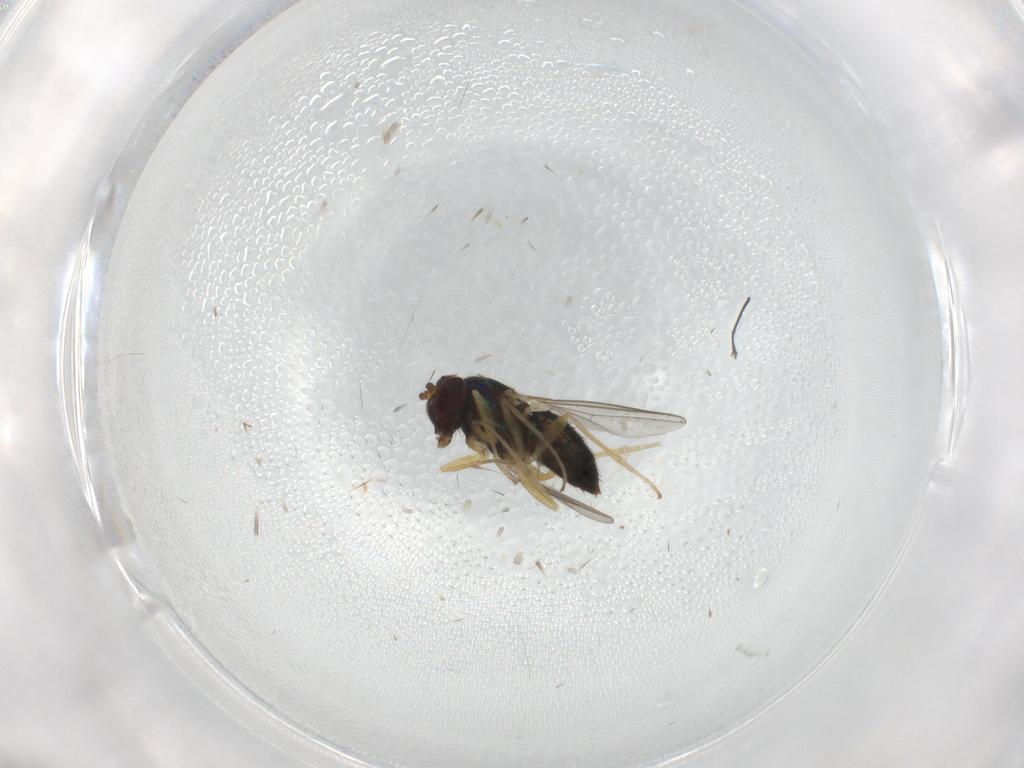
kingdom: Animalia
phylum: Arthropoda
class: Insecta
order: Diptera
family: Dolichopodidae
